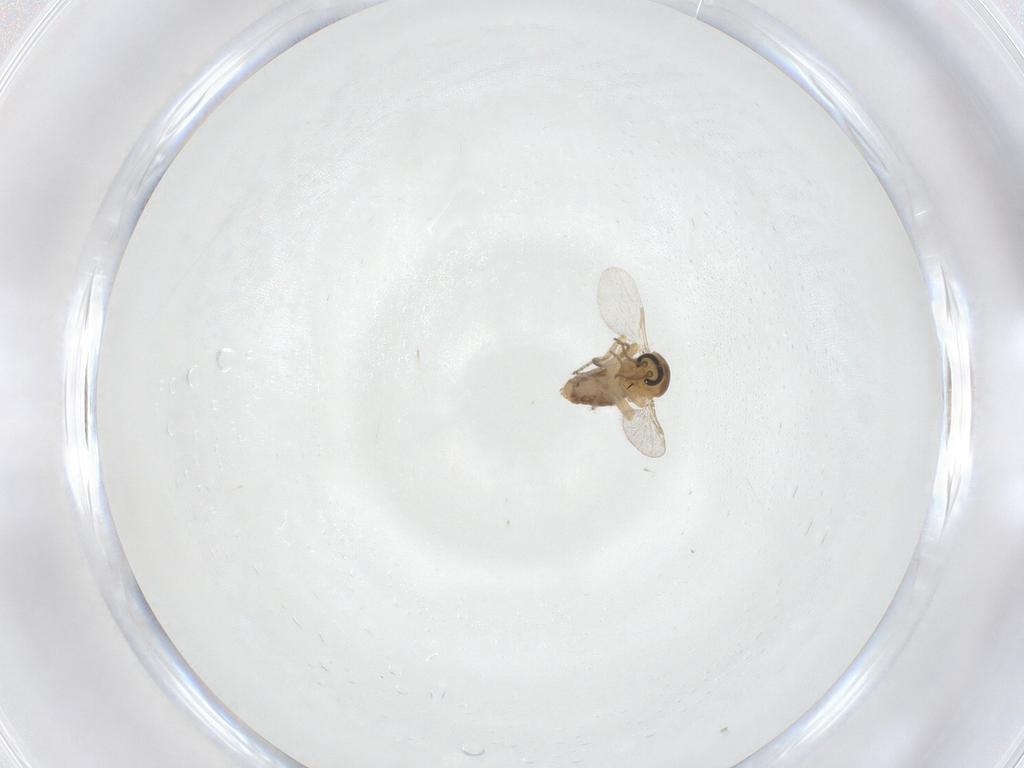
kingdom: Animalia
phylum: Arthropoda
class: Insecta
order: Diptera
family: Ceratopogonidae
